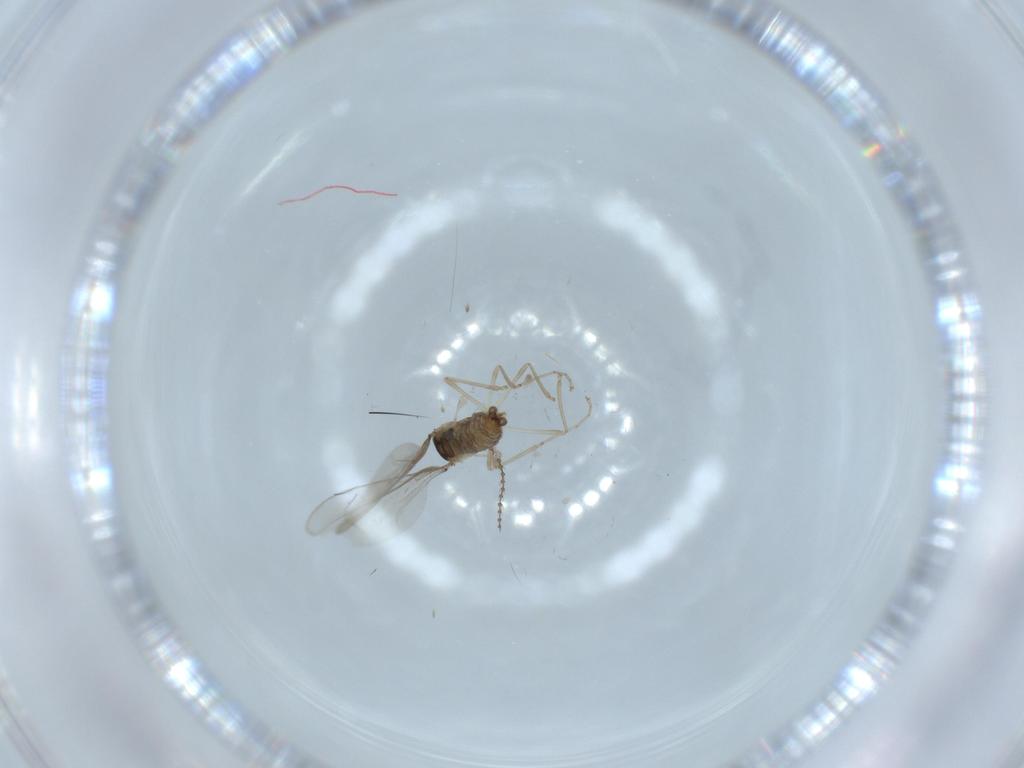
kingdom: Animalia
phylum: Arthropoda
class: Insecta
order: Diptera
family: Cecidomyiidae
